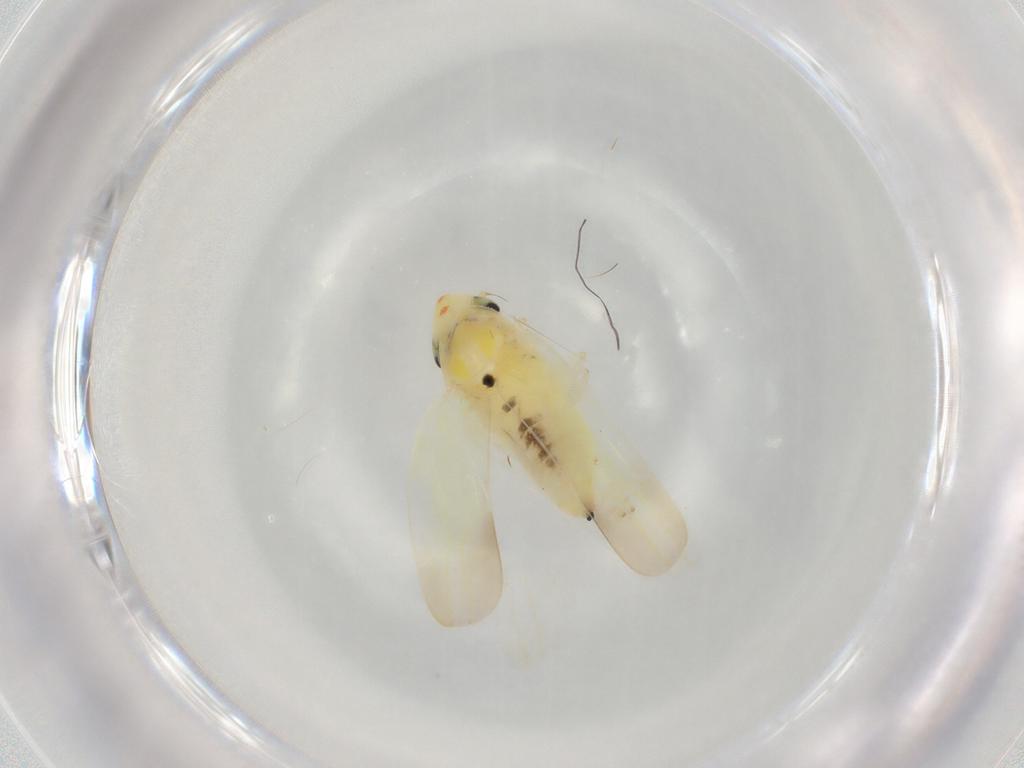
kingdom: Animalia
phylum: Arthropoda
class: Insecta
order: Hemiptera
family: Cicadellidae
